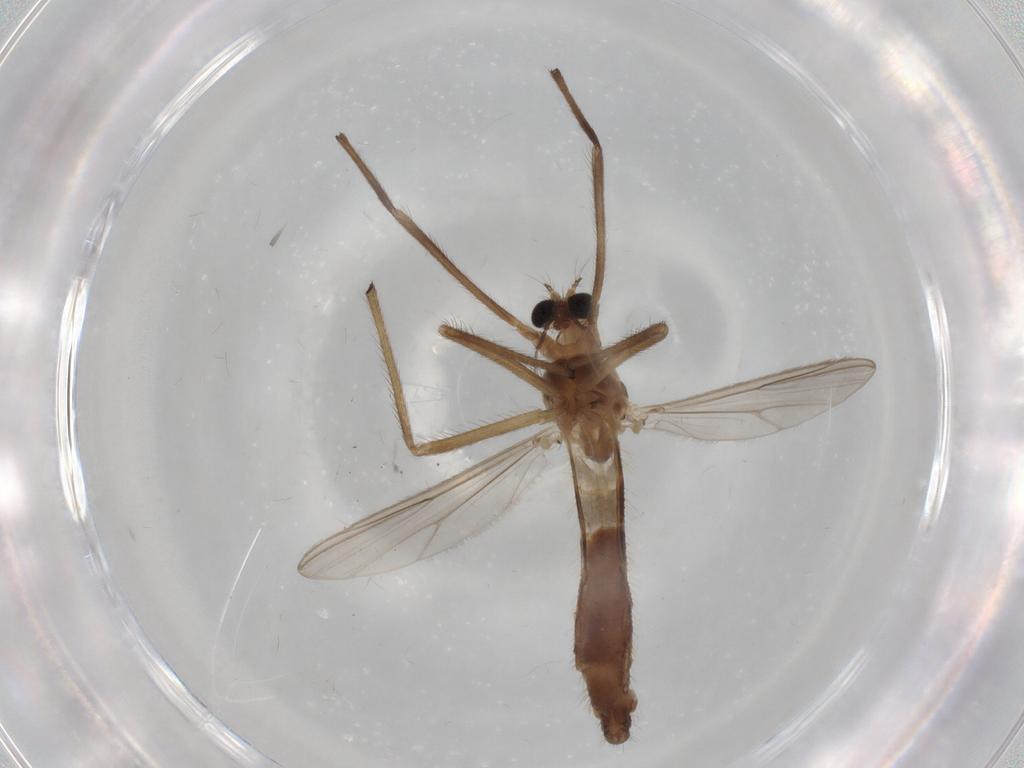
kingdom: Animalia
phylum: Arthropoda
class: Insecta
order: Diptera
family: Chironomidae
